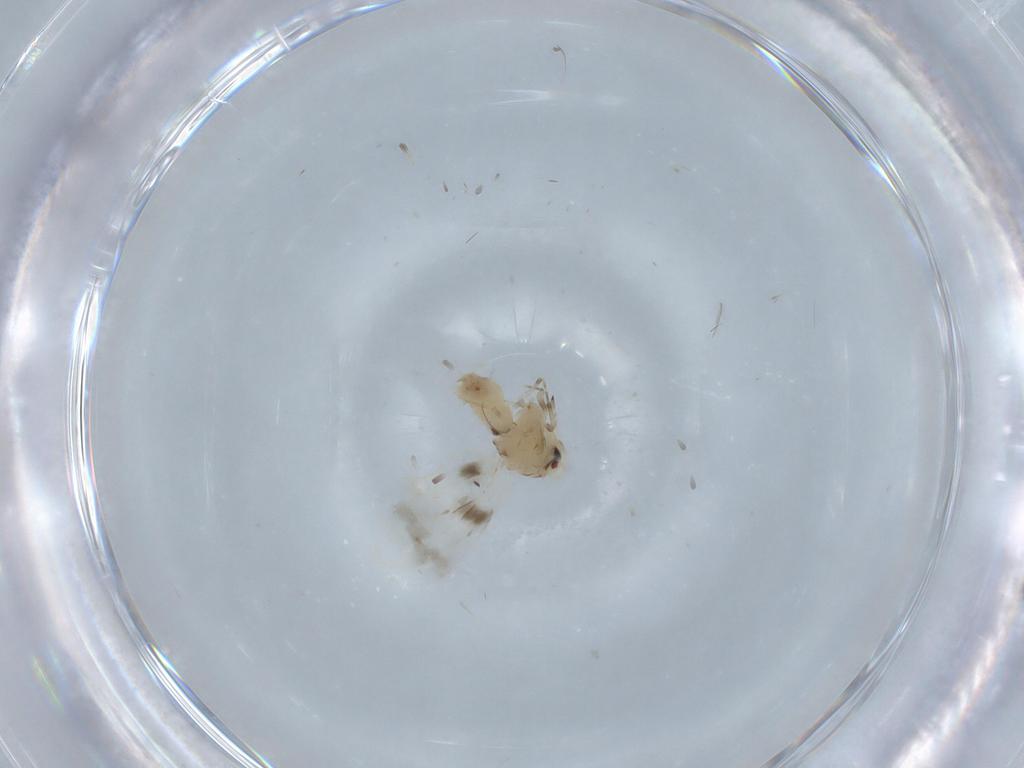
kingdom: Animalia
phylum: Arthropoda
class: Insecta
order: Hemiptera
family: Aleyrodidae
